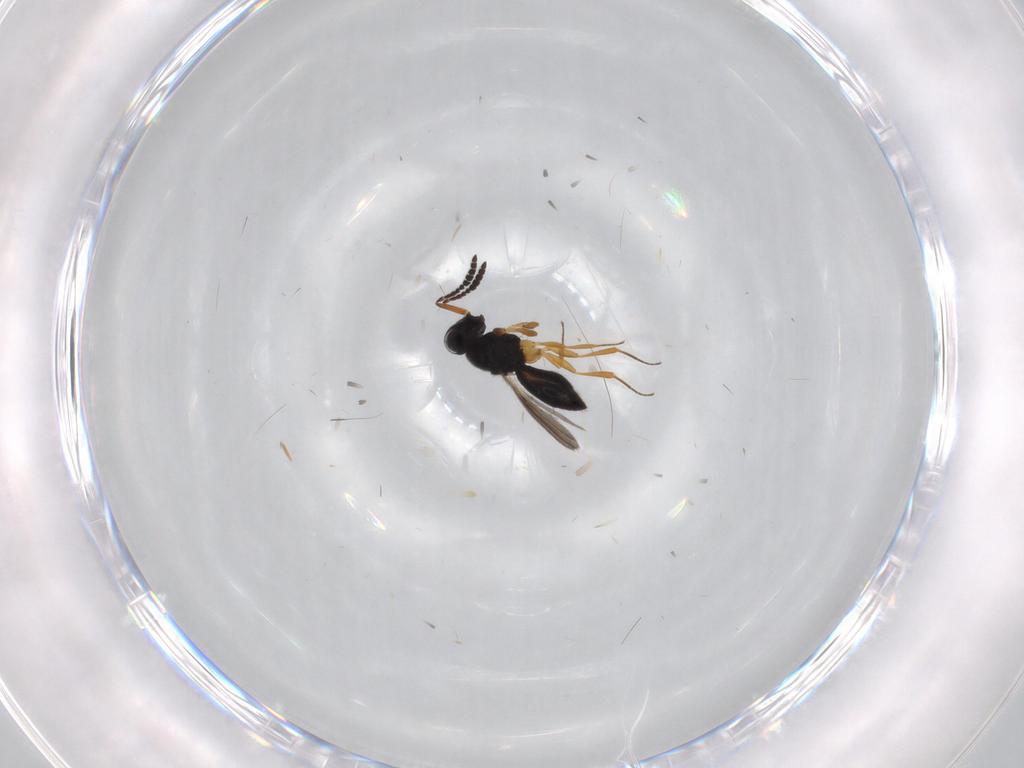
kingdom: Animalia
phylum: Arthropoda
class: Insecta
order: Hymenoptera
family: Scelionidae
